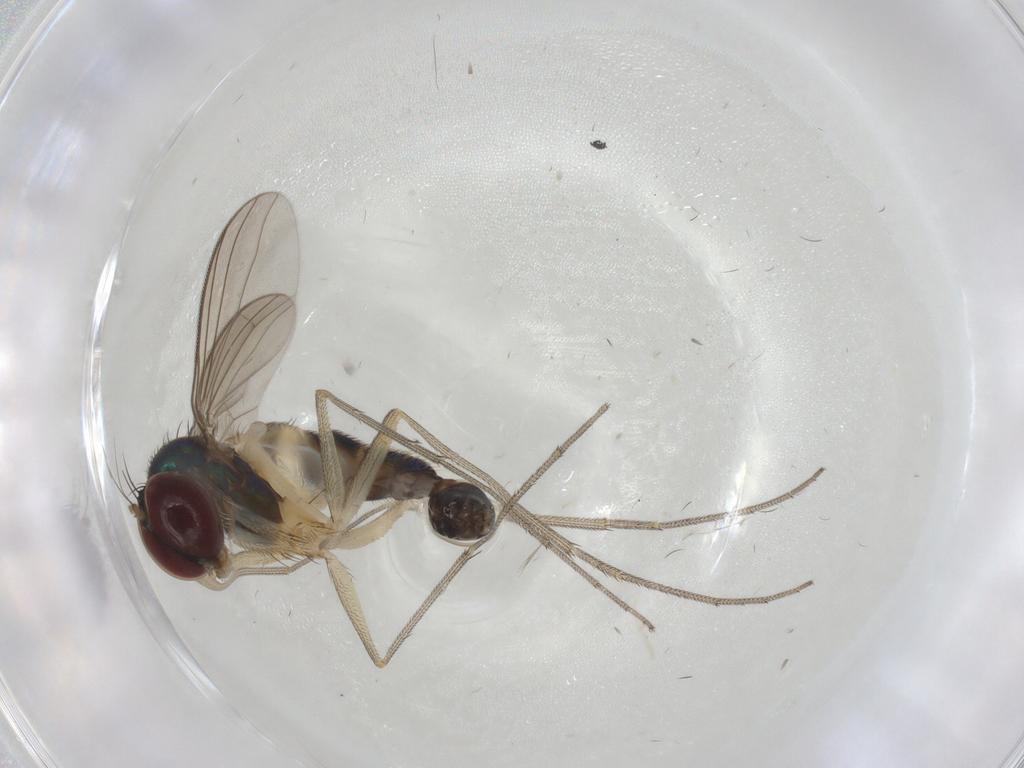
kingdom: Animalia
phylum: Arthropoda
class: Insecta
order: Diptera
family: Dolichopodidae
